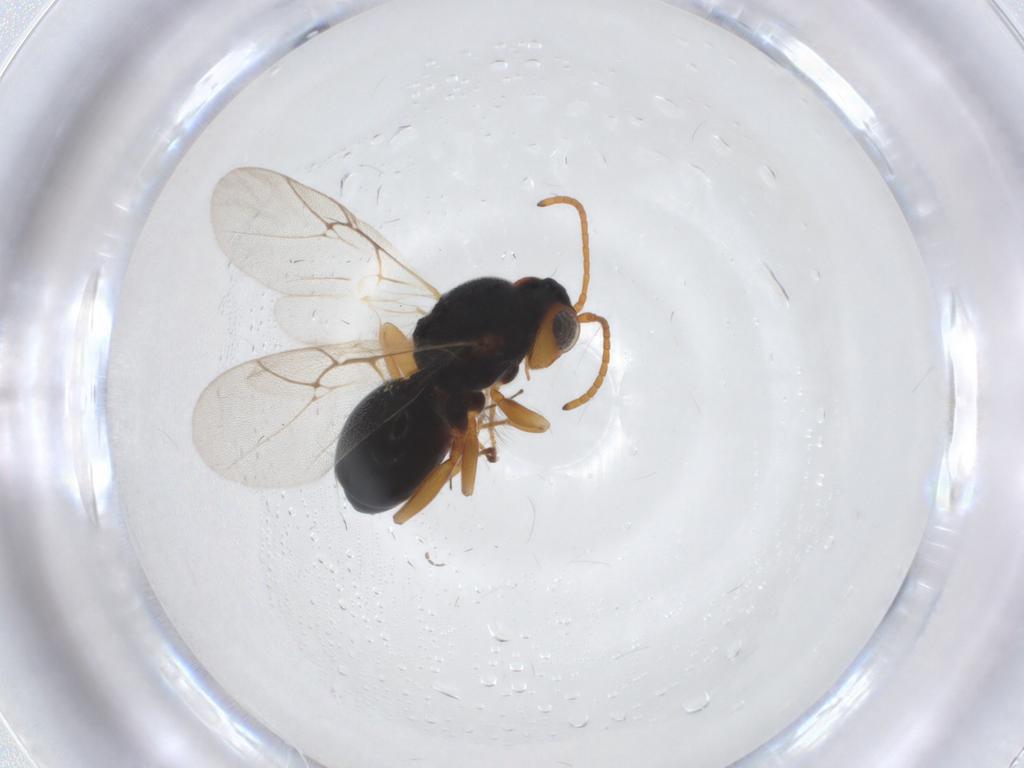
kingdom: Animalia
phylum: Arthropoda
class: Insecta
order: Hymenoptera
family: Cynipidae
